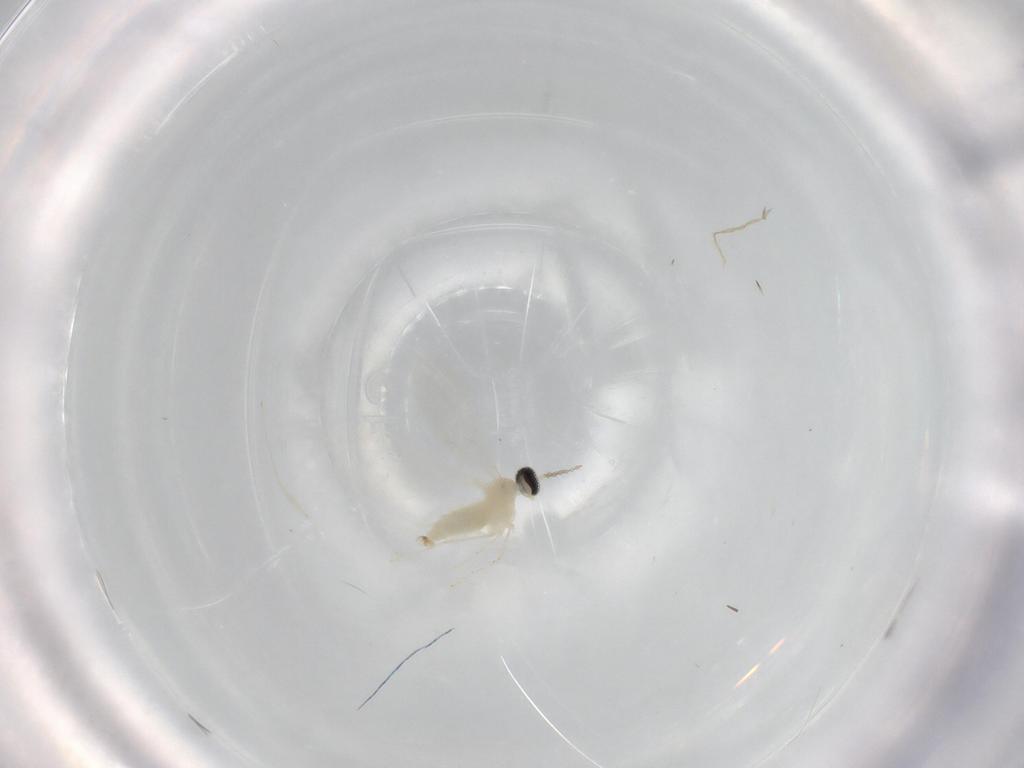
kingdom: Animalia
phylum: Arthropoda
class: Insecta
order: Diptera
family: Cecidomyiidae
